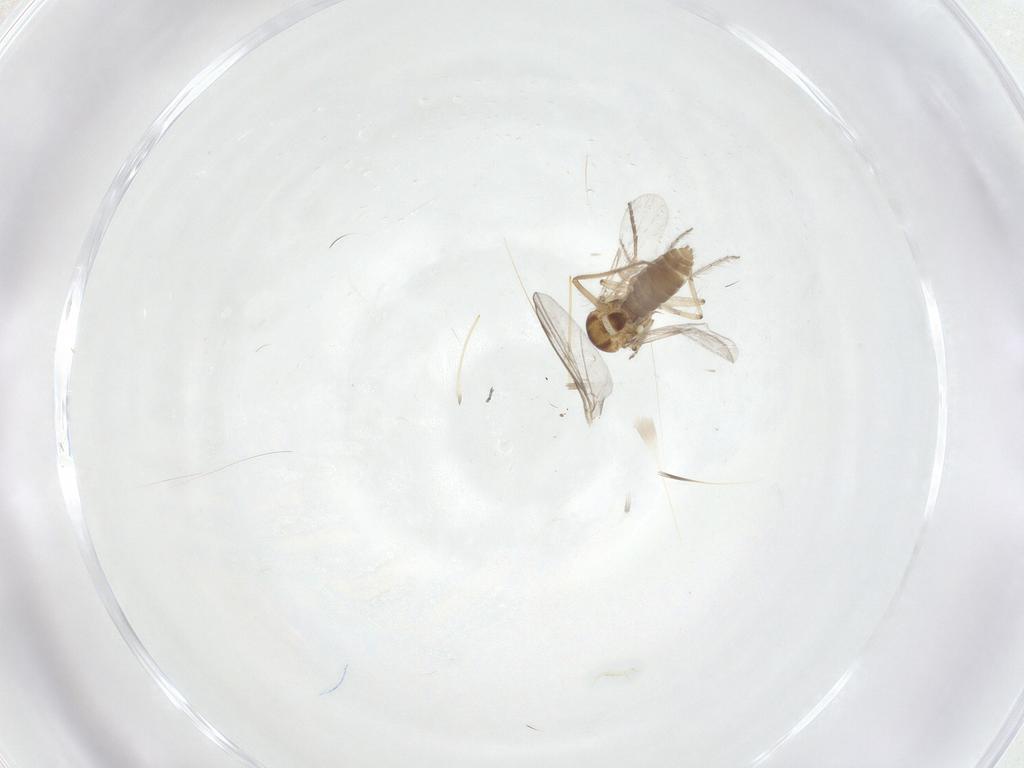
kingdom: Animalia
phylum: Arthropoda
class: Insecta
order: Diptera
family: Ceratopogonidae
